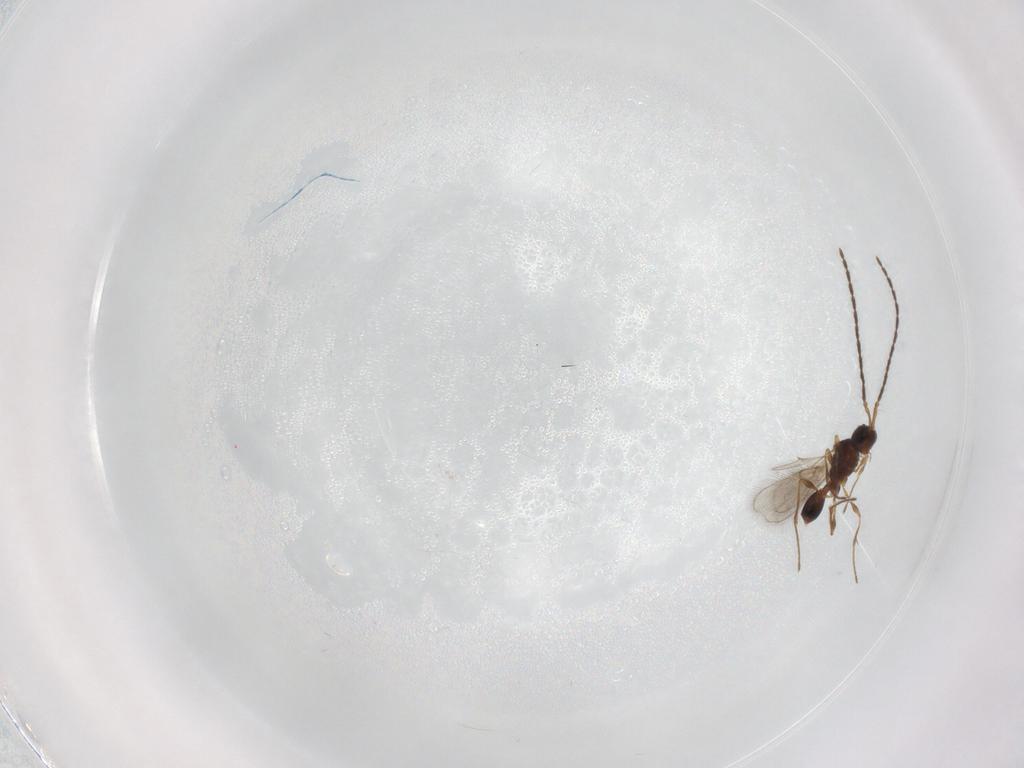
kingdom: Animalia
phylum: Arthropoda
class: Insecta
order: Hymenoptera
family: Diapriidae
